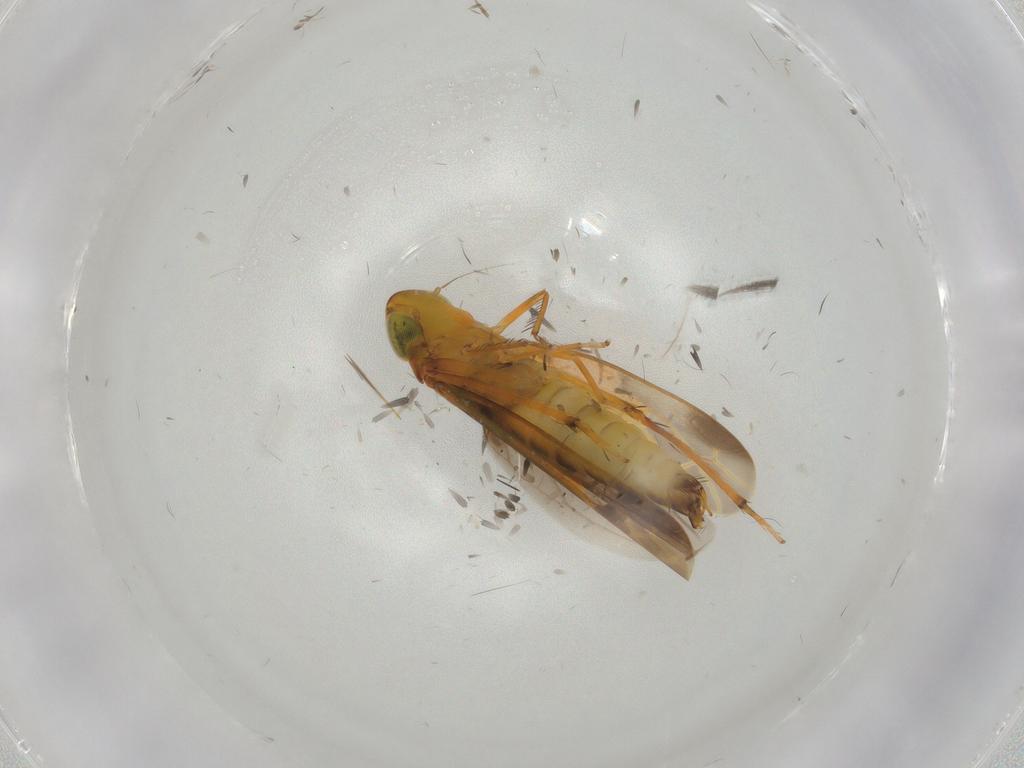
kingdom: Animalia
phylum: Arthropoda
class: Insecta
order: Hemiptera
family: Cicadellidae
